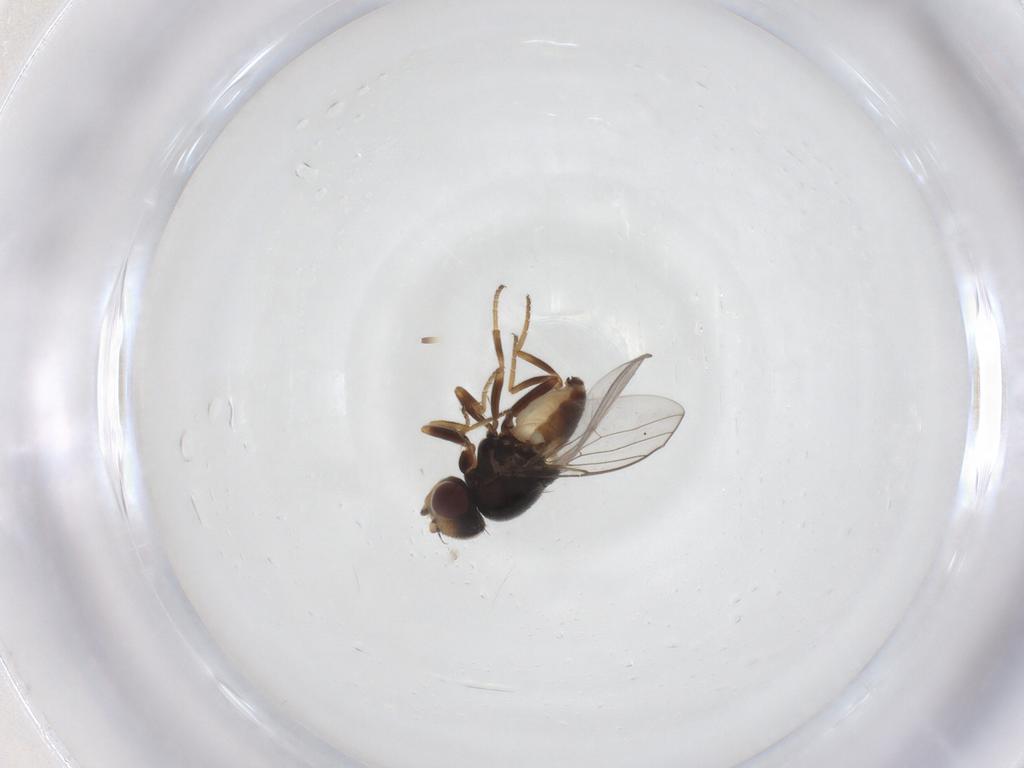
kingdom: Animalia
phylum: Arthropoda
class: Insecta
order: Diptera
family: Chloropidae
